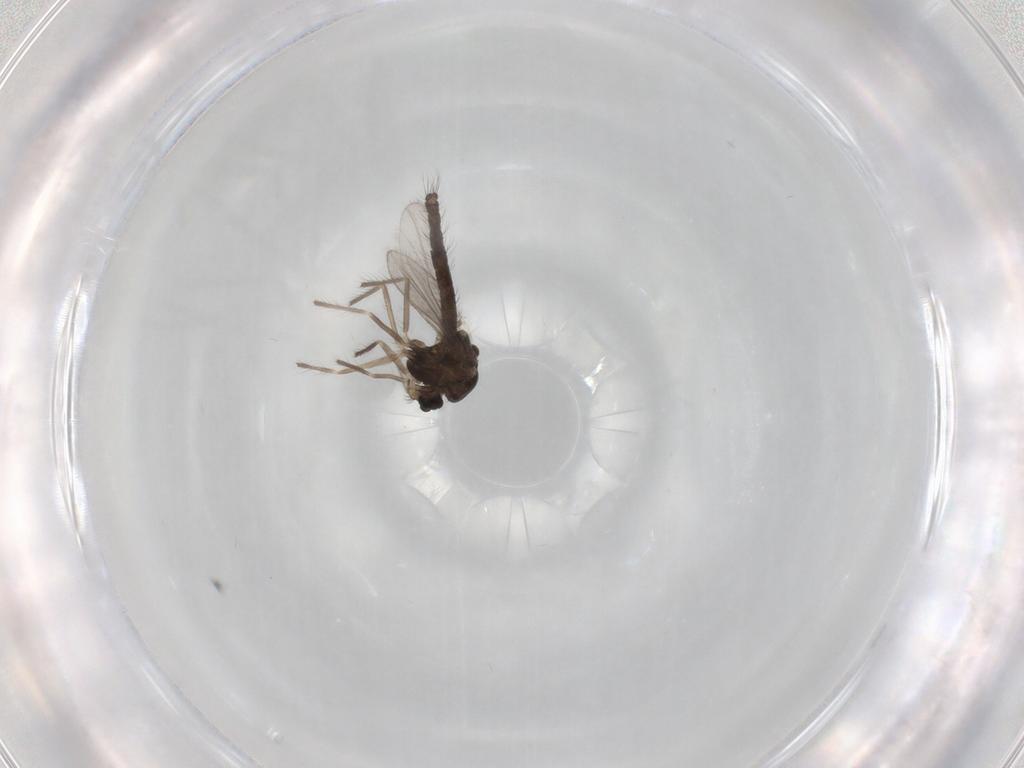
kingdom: Animalia
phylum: Arthropoda
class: Insecta
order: Diptera
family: Chironomidae
